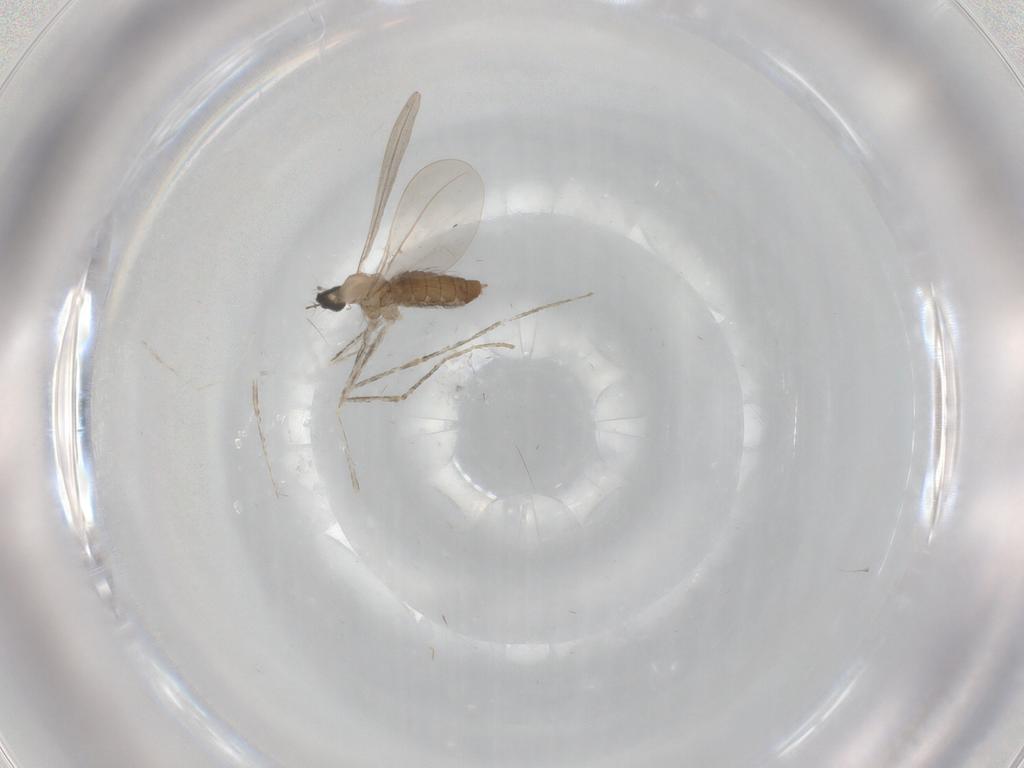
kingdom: Animalia
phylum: Arthropoda
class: Insecta
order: Diptera
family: Cecidomyiidae
